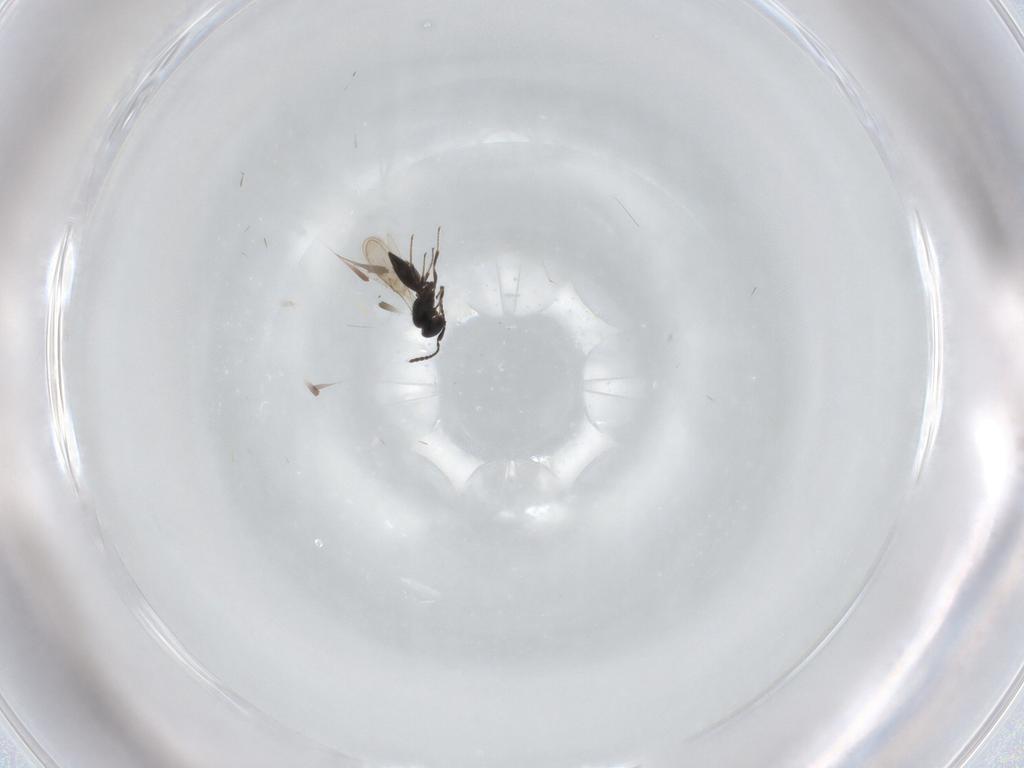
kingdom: Animalia
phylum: Arthropoda
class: Insecta
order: Hymenoptera
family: Scelionidae
